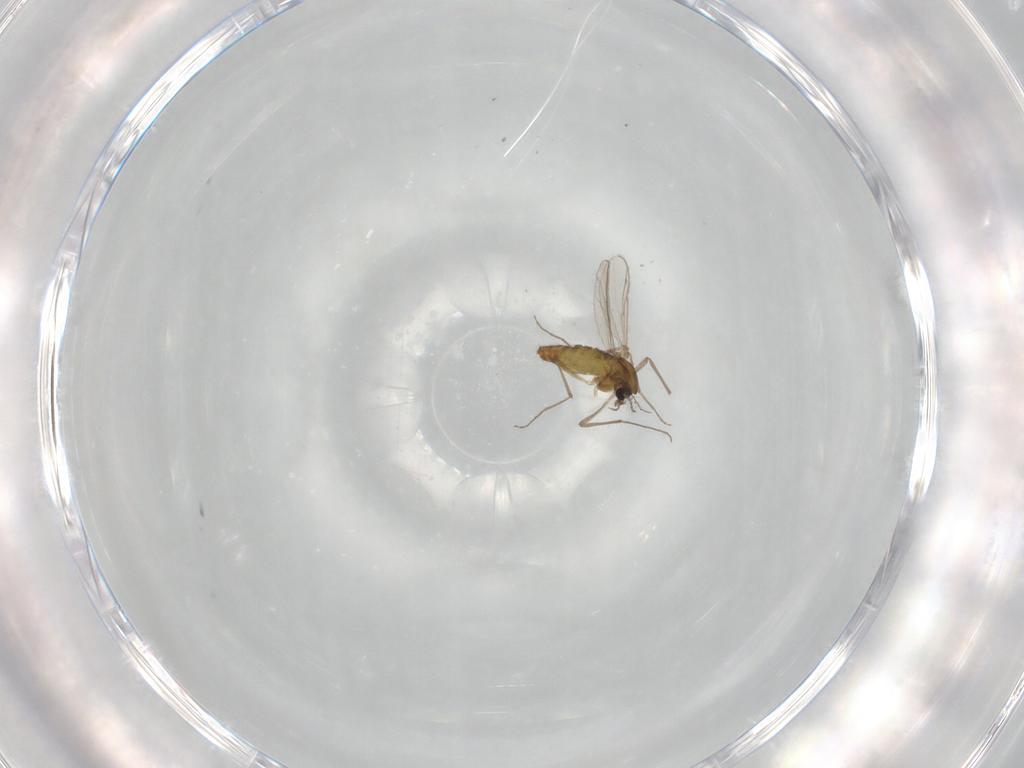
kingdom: Animalia
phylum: Arthropoda
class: Insecta
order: Diptera
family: Chironomidae
